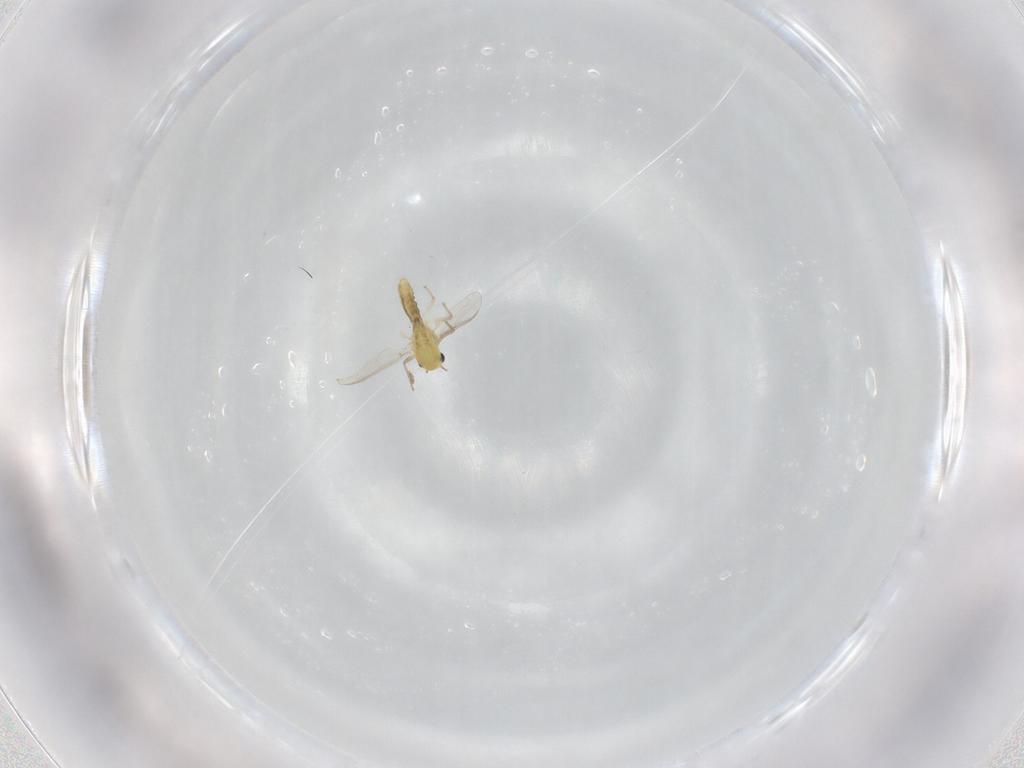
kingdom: Animalia
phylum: Arthropoda
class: Insecta
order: Diptera
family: Chironomidae
